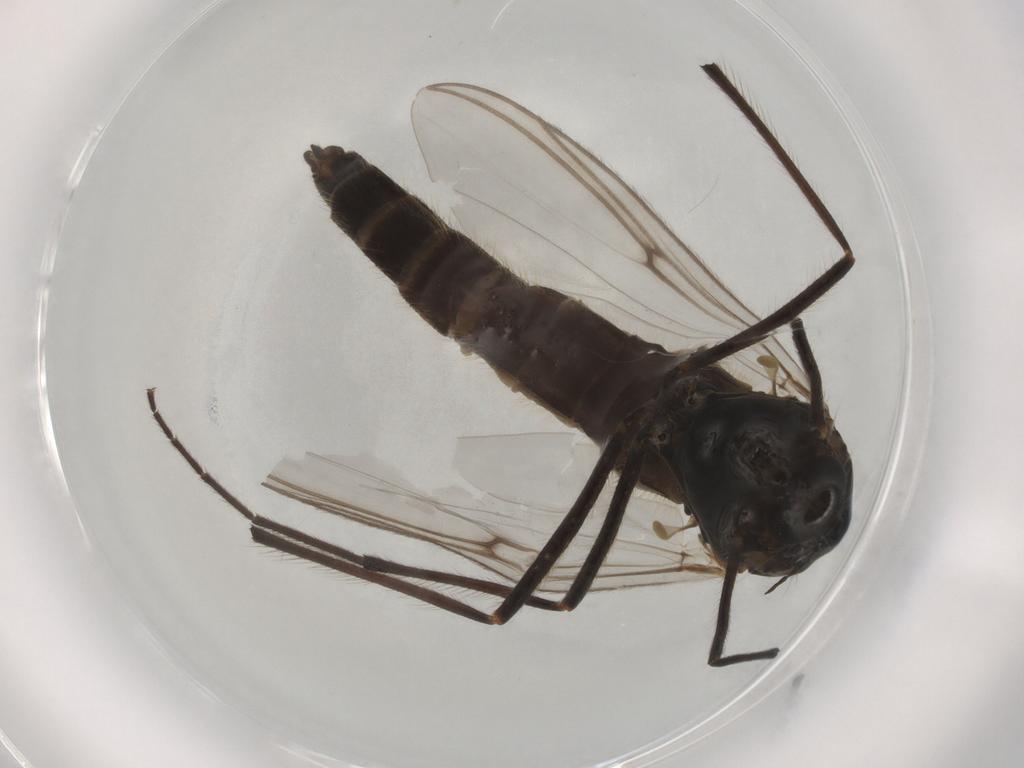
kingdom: Animalia
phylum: Arthropoda
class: Insecta
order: Diptera
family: Chironomidae
